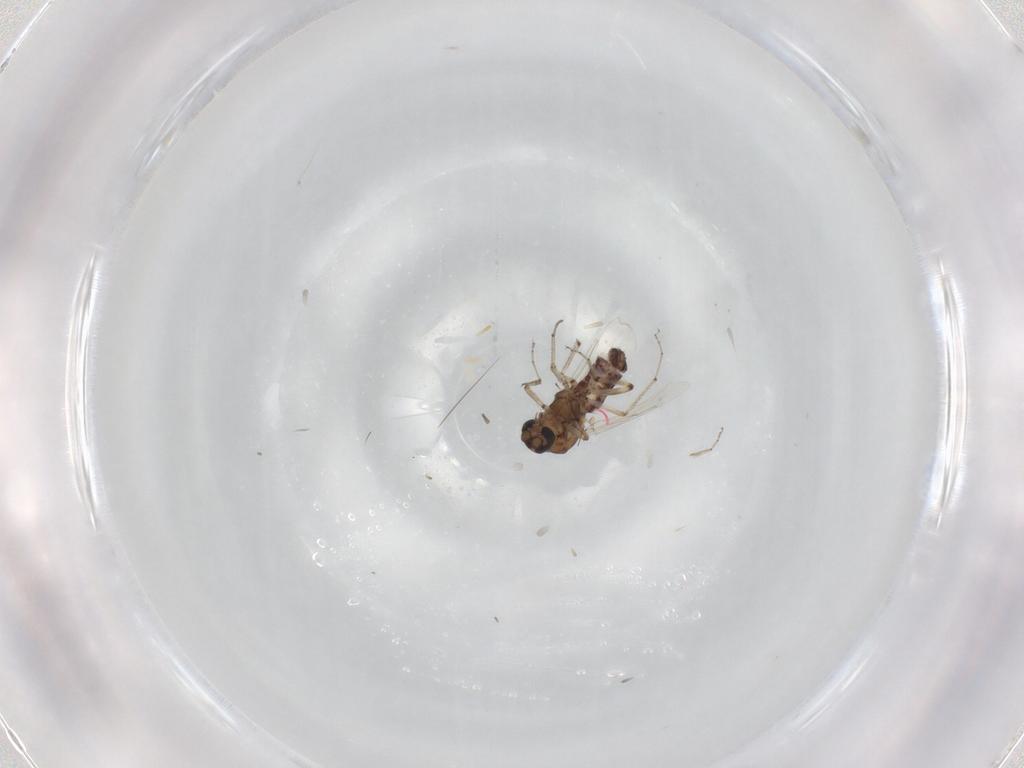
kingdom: Animalia
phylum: Arthropoda
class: Insecta
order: Diptera
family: Ceratopogonidae
